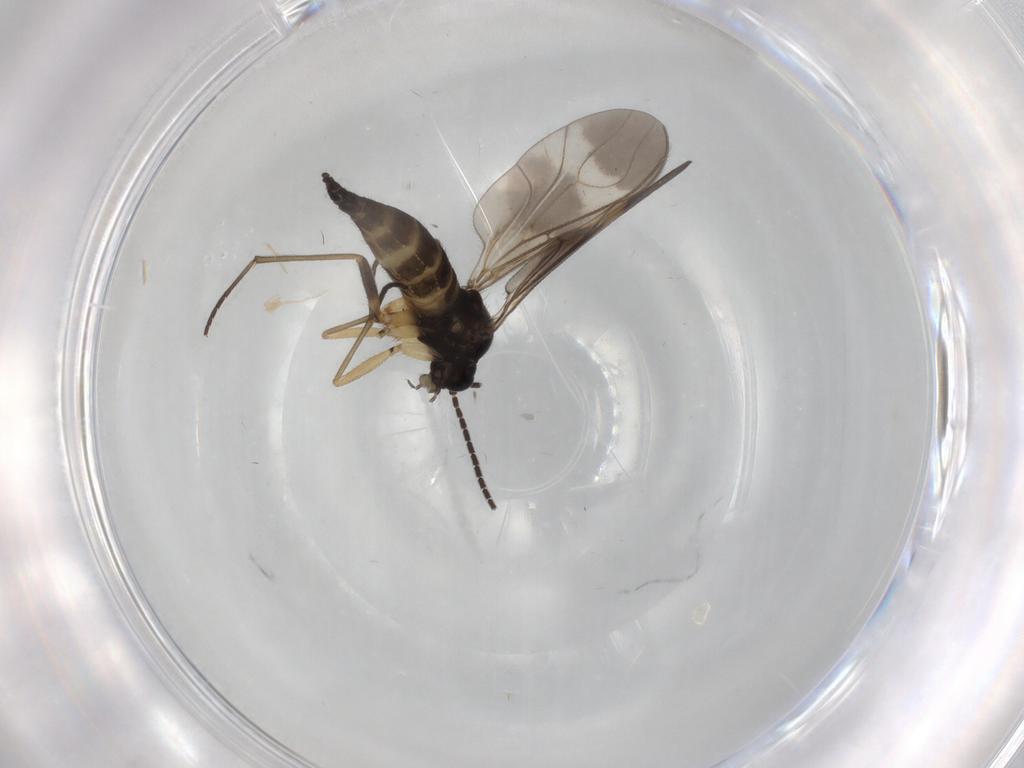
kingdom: Animalia
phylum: Arthropoda
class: Insecta
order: Diptera
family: Sciaridae
